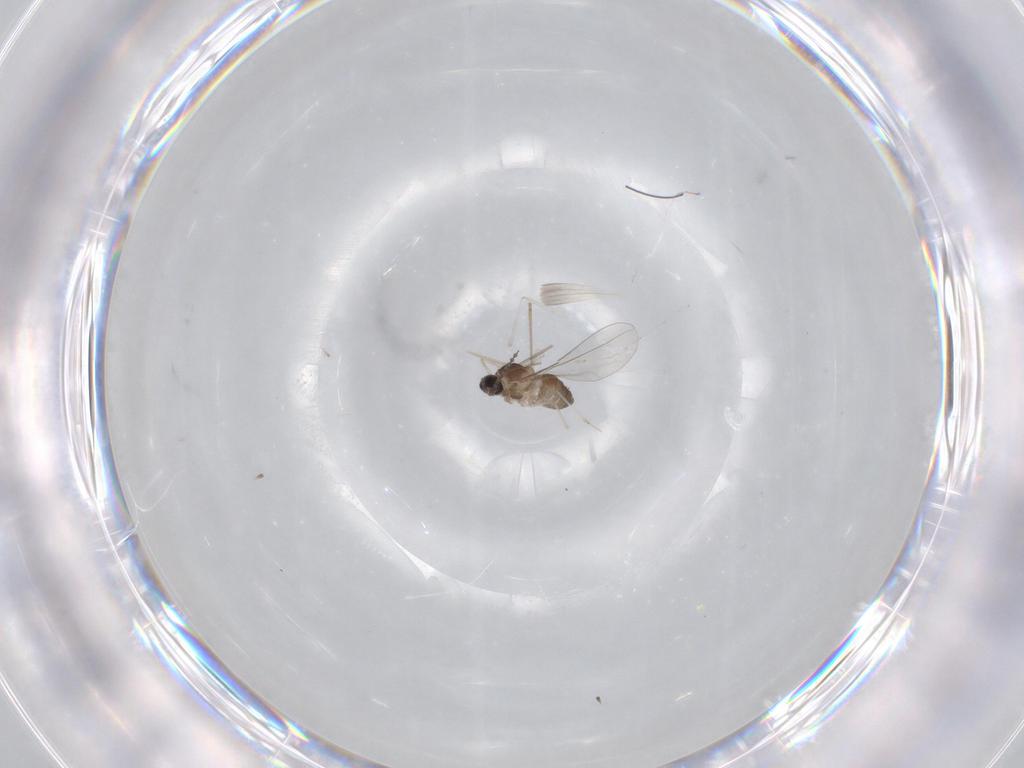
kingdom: Animalia
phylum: Arthropoda
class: Insecta
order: Diptera
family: Cecidomyiidae
